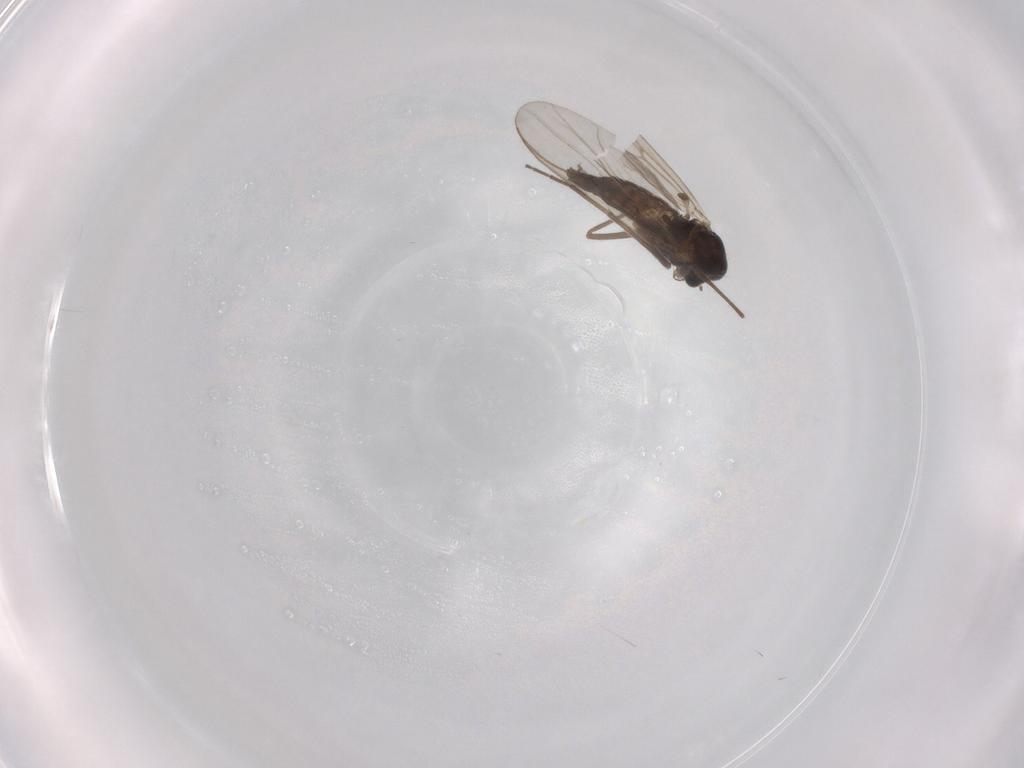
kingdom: Animalia
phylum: Arthropoda
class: Insecta
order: Diptera
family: Chironomidae
